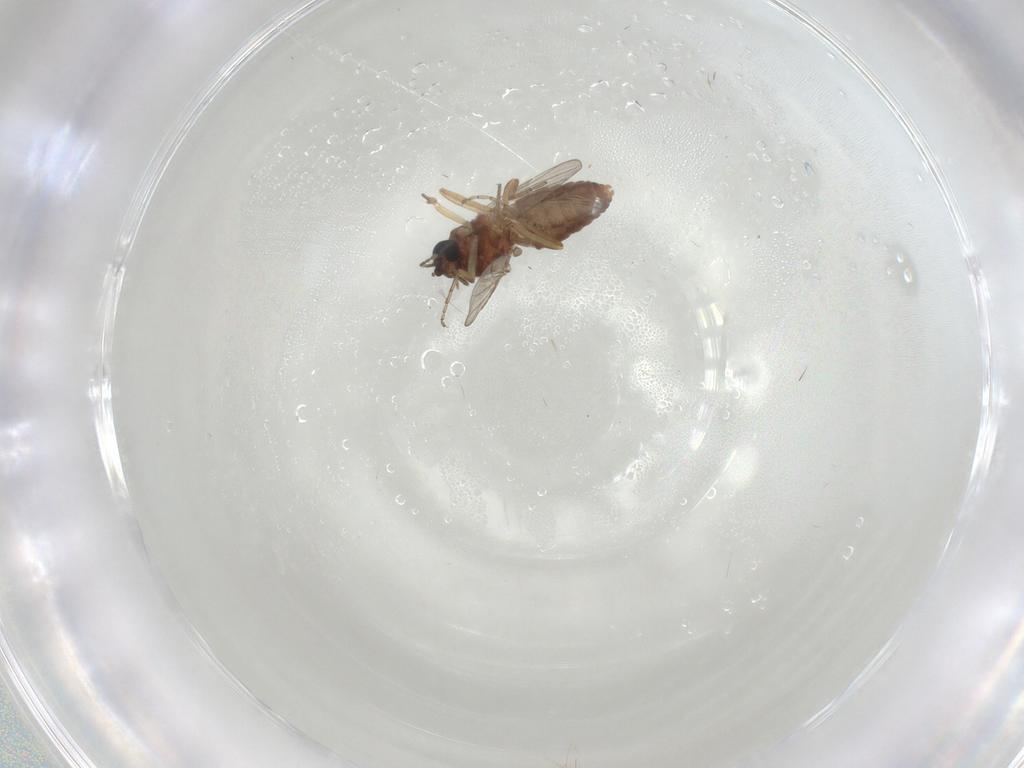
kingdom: Animalia
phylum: Arthropoda
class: Insecta
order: Diptera
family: Ceratopogonidae
